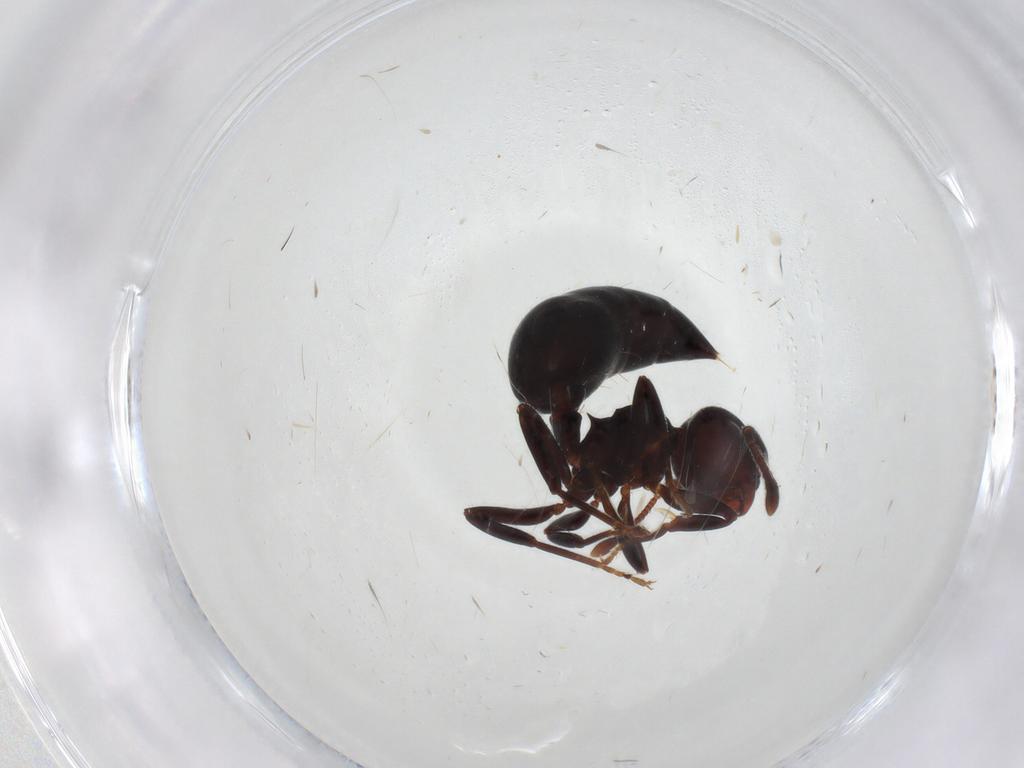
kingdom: Animalia
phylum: Arthropoda
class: Insecta
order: Hymenoptera
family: Formicidae
